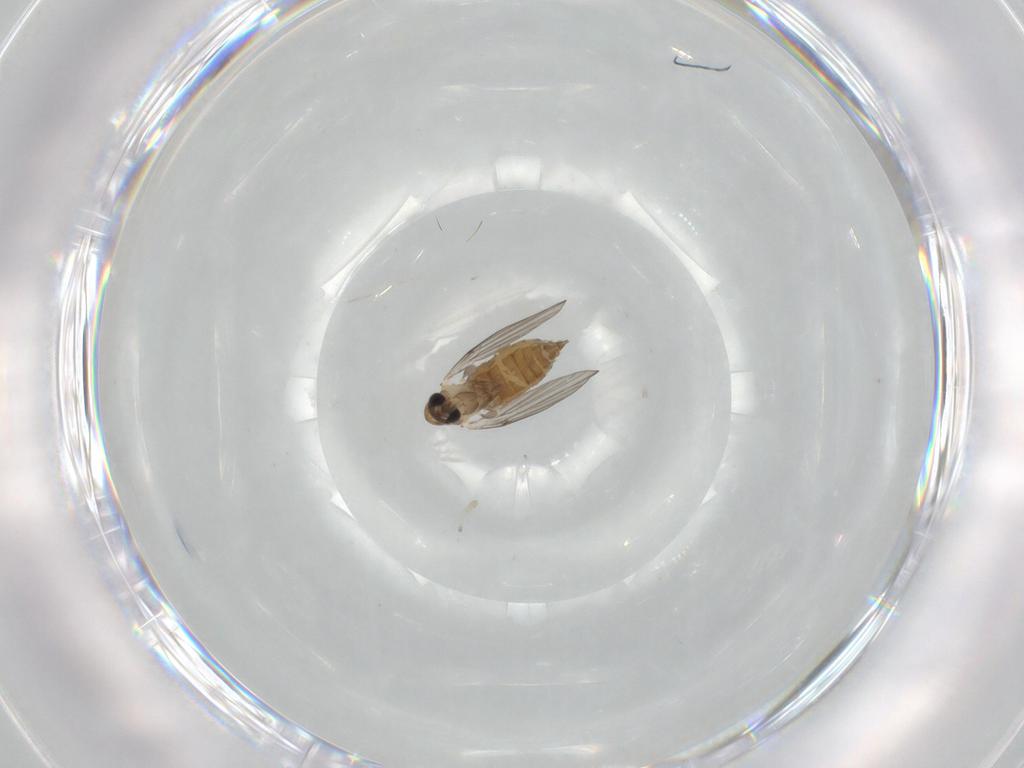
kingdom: Animalia
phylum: Arthropoda
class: Insecta
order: Diptera
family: Psychodidae
